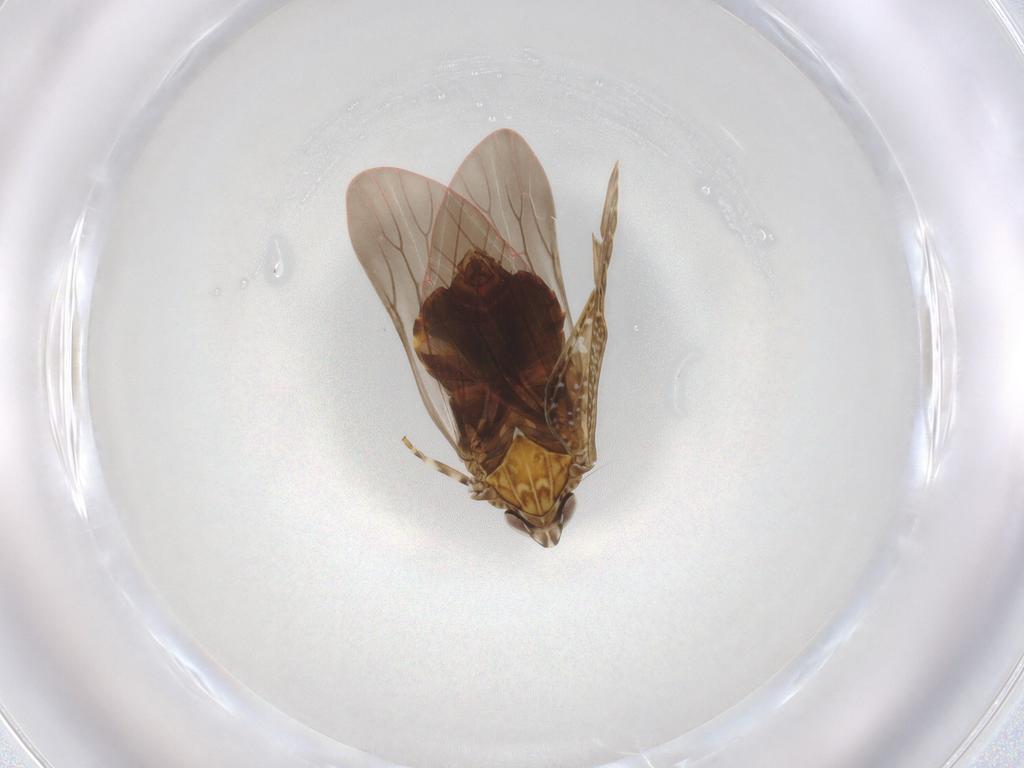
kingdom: Animalia
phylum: Arthropoda
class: Insecta
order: Hemiptera
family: Achilidae
